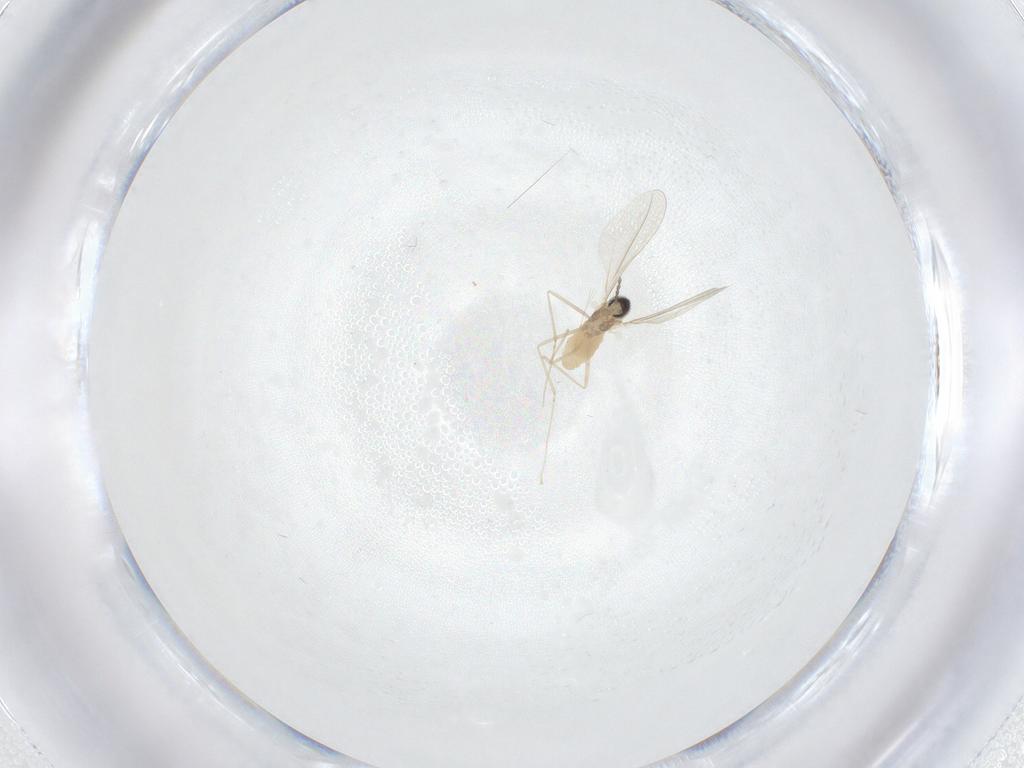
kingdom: Animalia
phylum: Arthropoda
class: Insecta
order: Diptera
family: Cecidomyiidae
